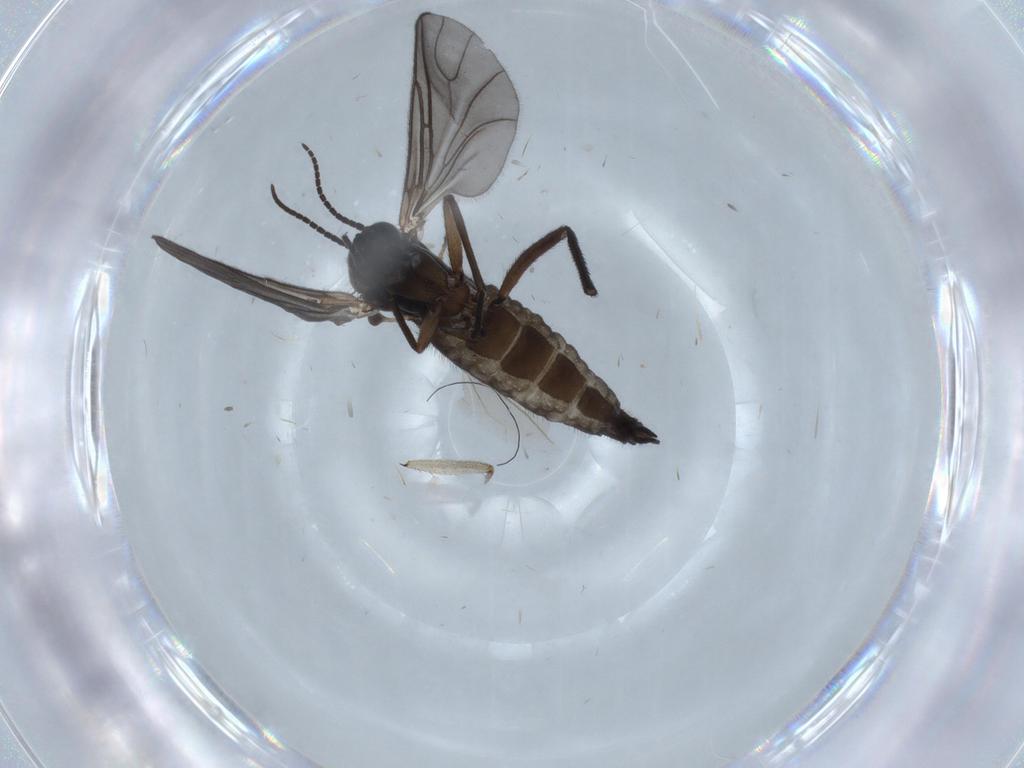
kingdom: Animalia
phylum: Arthropoda
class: Insecta
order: Diptera
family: Sciaridae
